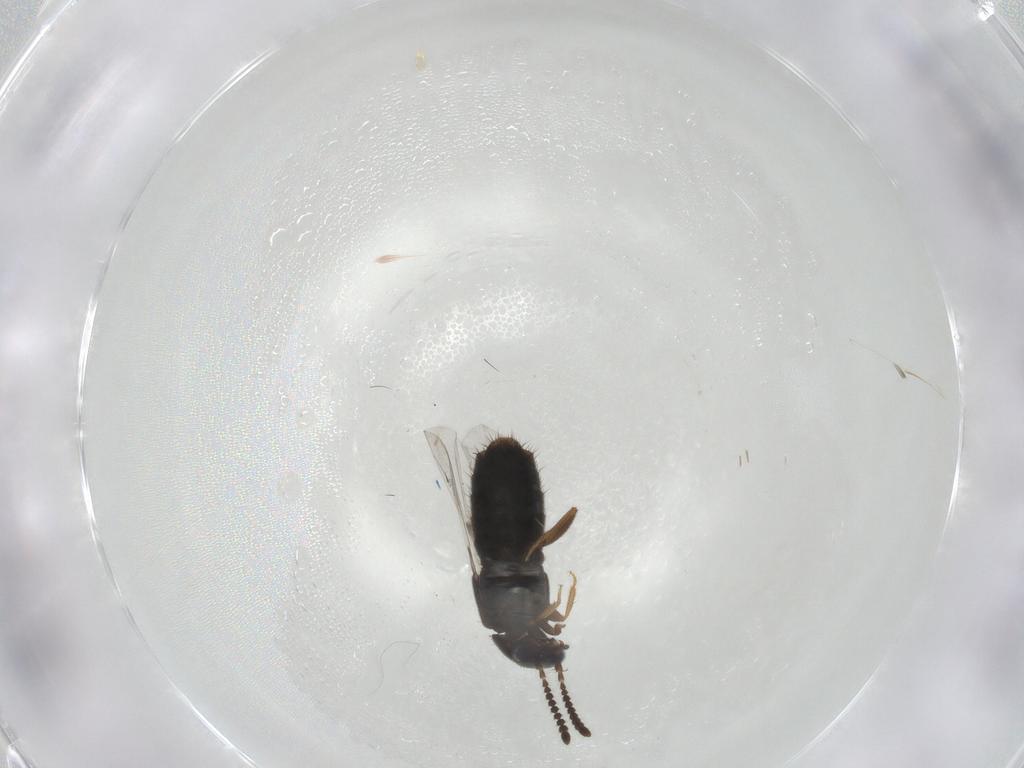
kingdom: Animalia
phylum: Arthropoda
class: Insecta
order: Coleoptera
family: Staphylinidae
